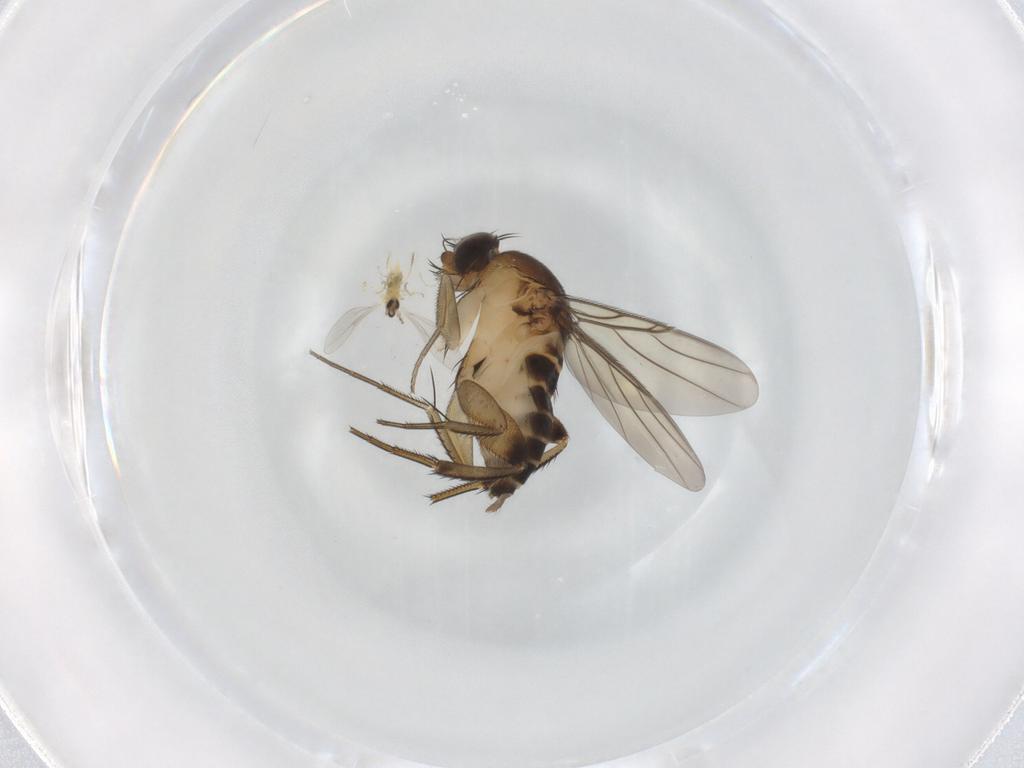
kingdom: Animalia
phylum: Arthropoda
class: Insecta
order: Diptera
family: Phoridae
